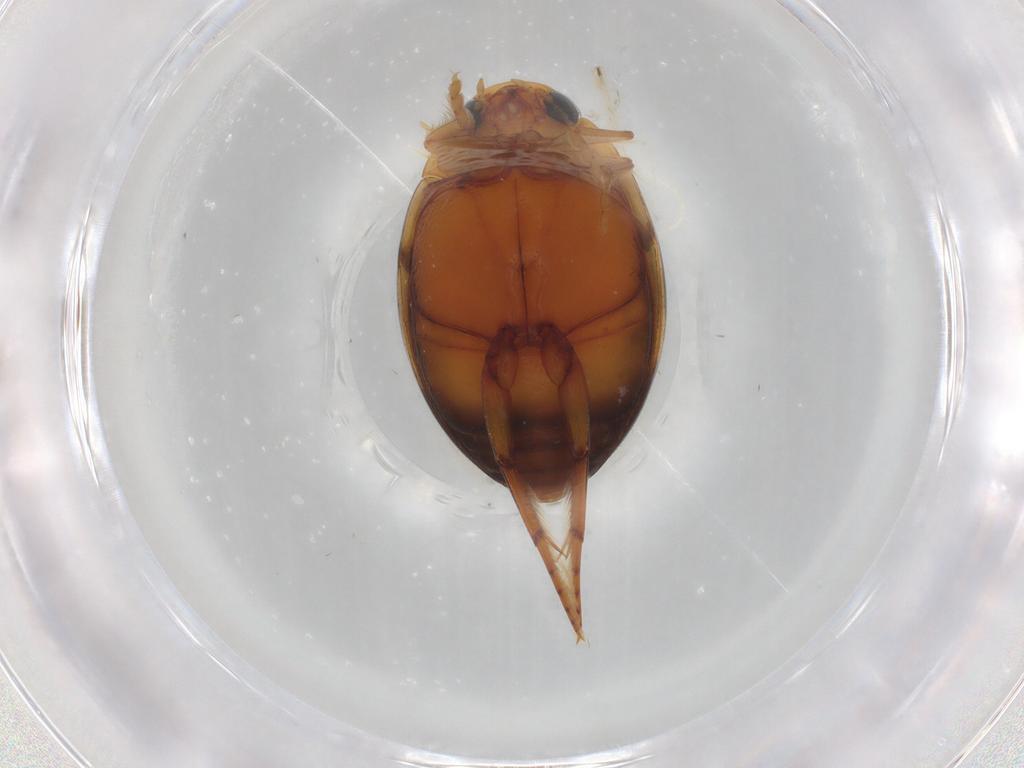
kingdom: Animalia
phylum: Arthropoda
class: Insecta
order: Coleoptera
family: Dytiscidae
